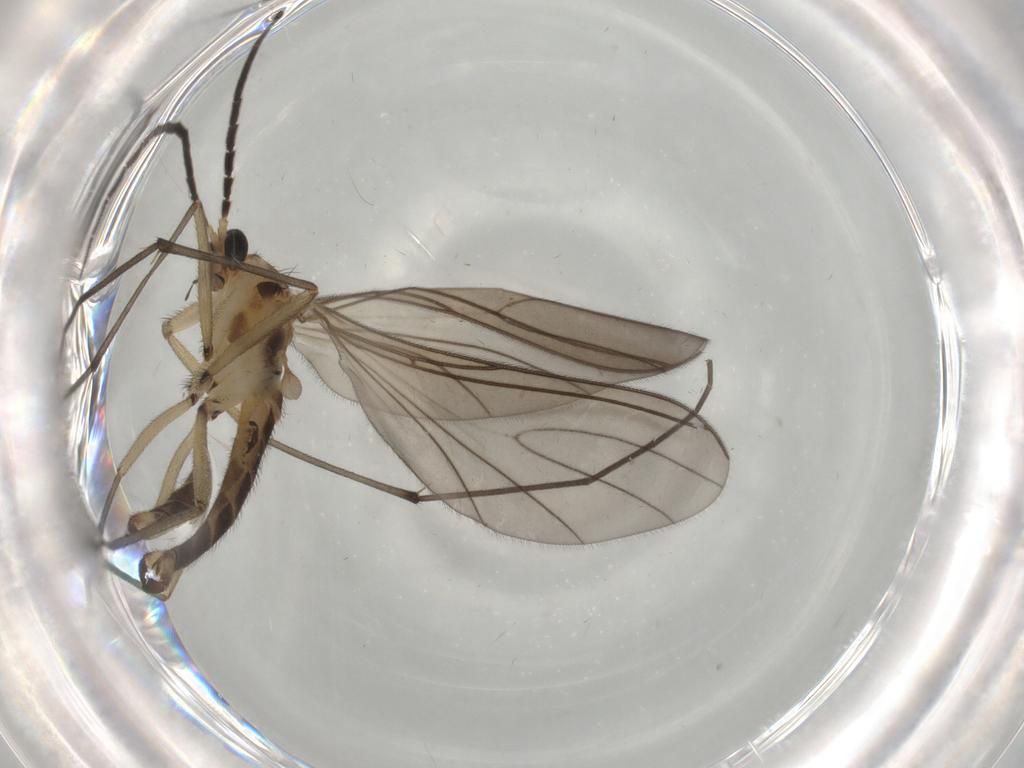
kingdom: Animalia
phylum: Arthropoda
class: Insecta
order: Diptera
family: Sciaridae
